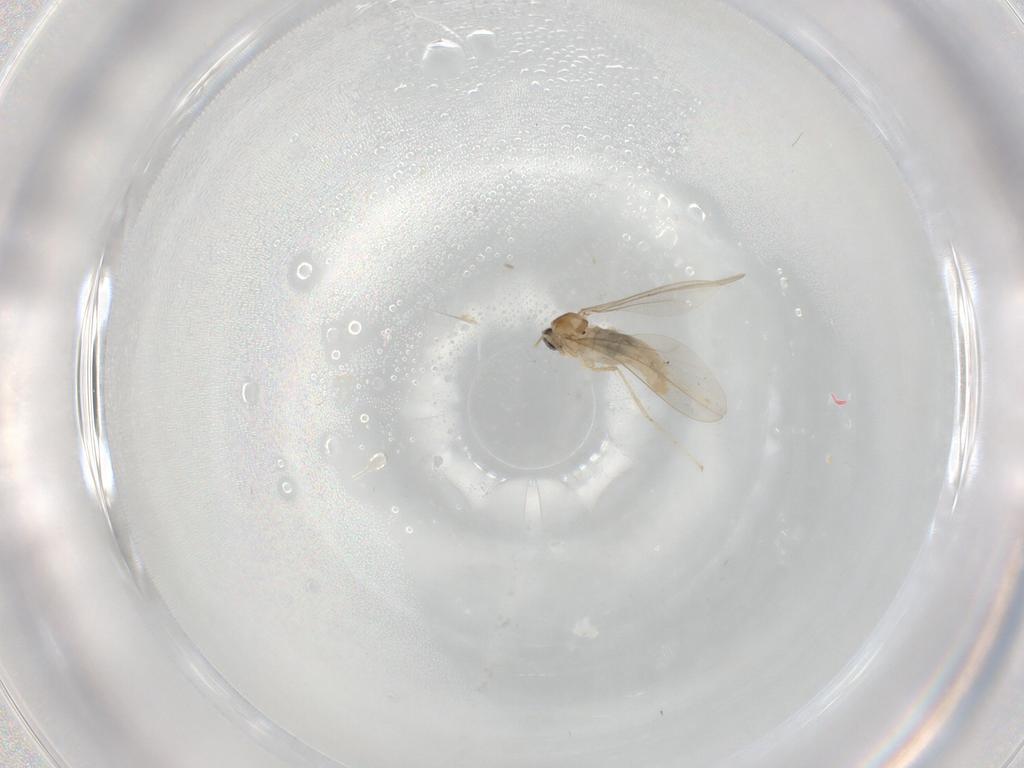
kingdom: Animalia
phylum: Arthropoda
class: Insecta
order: Diptera
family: Cecidomyiidae
